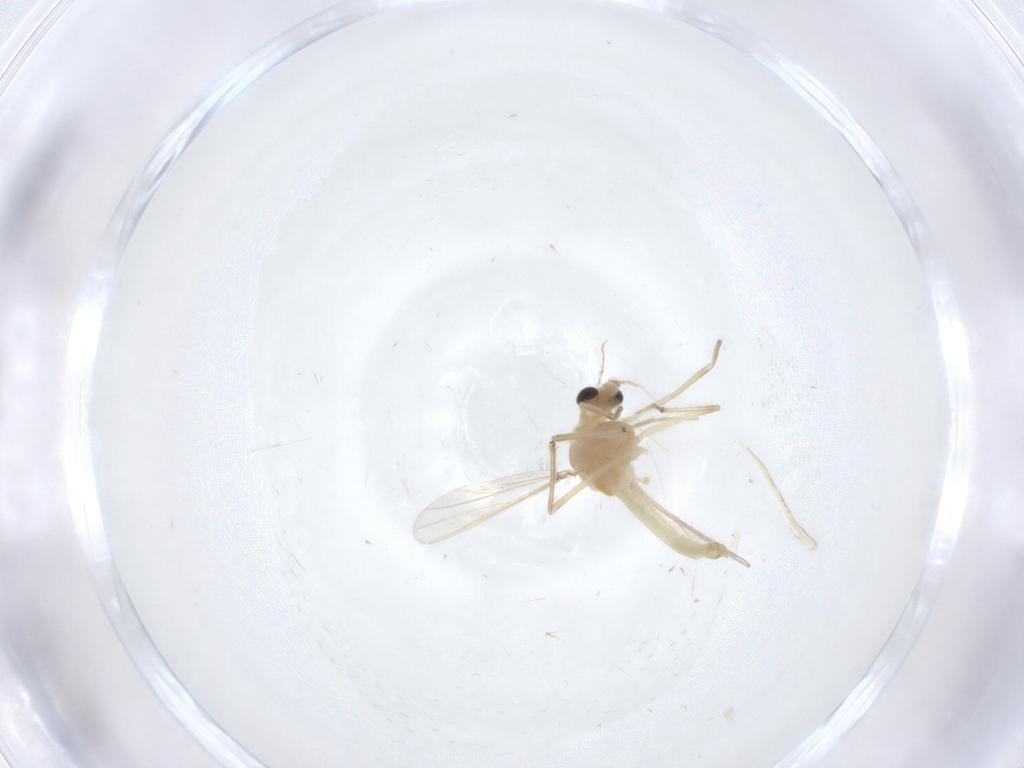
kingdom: Animalia
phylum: Arthropoda
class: Insecta
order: Diptera
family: Chironomidae
